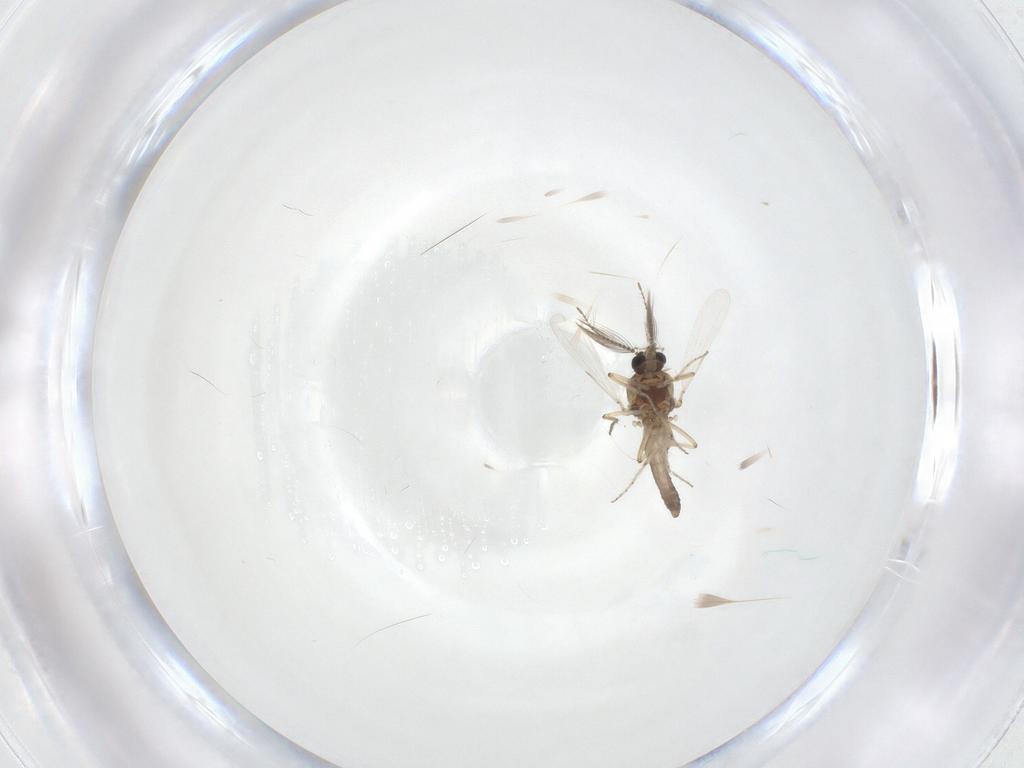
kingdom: Animalia
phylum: Arthropoda
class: Insecta
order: Diptera
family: Ceratopogonidae
